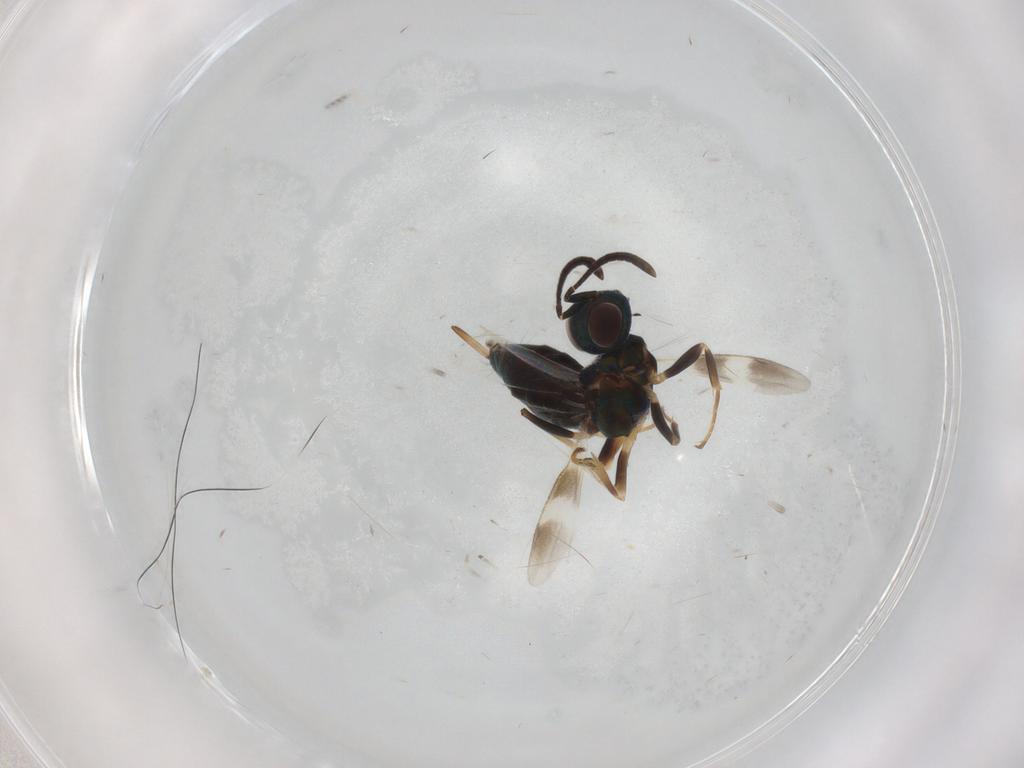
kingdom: Animalia
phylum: Arthropoda
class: Insecta
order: Hymenoptera
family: Eupelmidae
